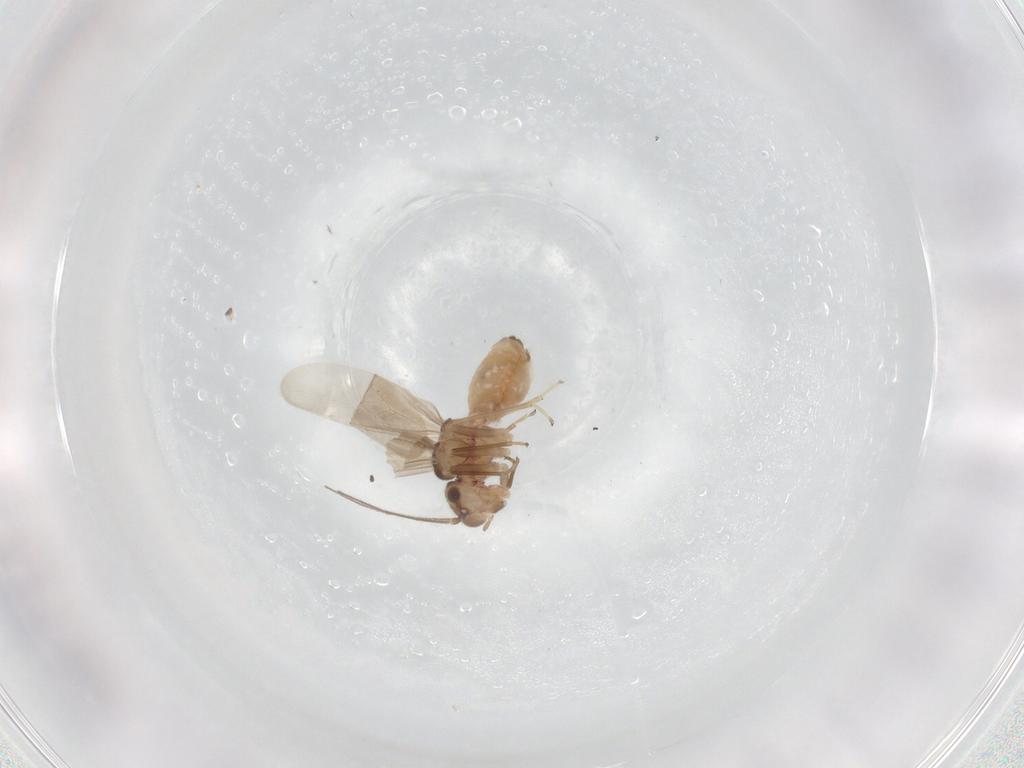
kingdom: Animalia
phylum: Arthropoda
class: Insecta
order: Psocodea
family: Caeciliusidae
